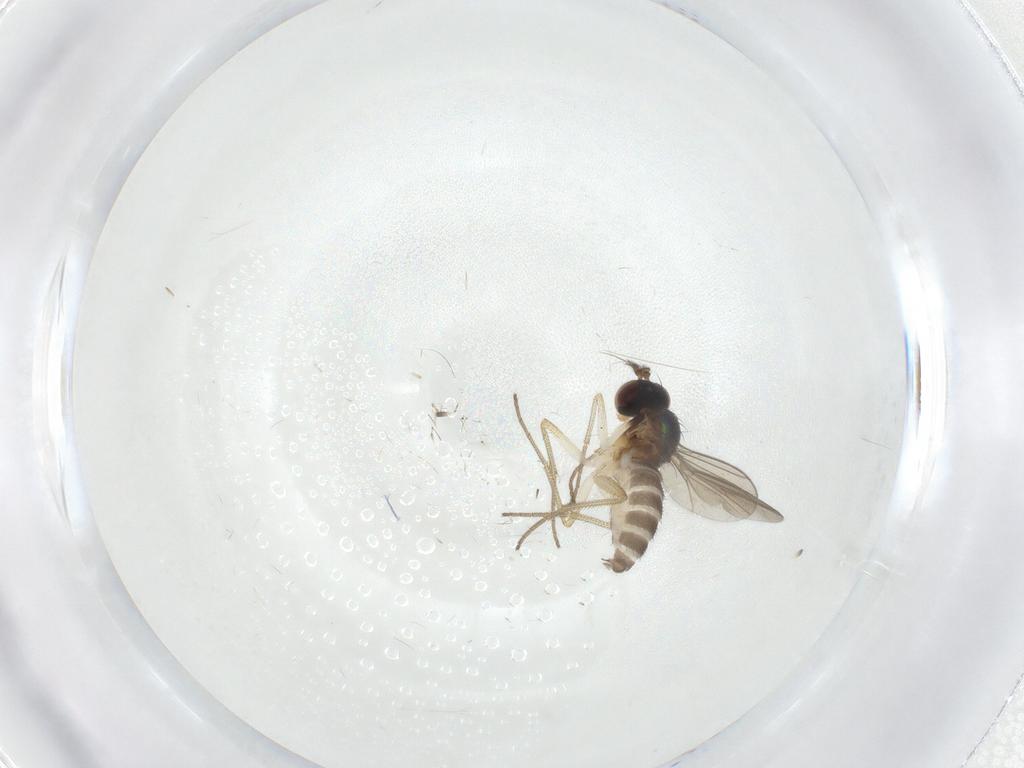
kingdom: Animalia
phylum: Arthropoda
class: Insecta
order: Diptera
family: Dolichopodidae
